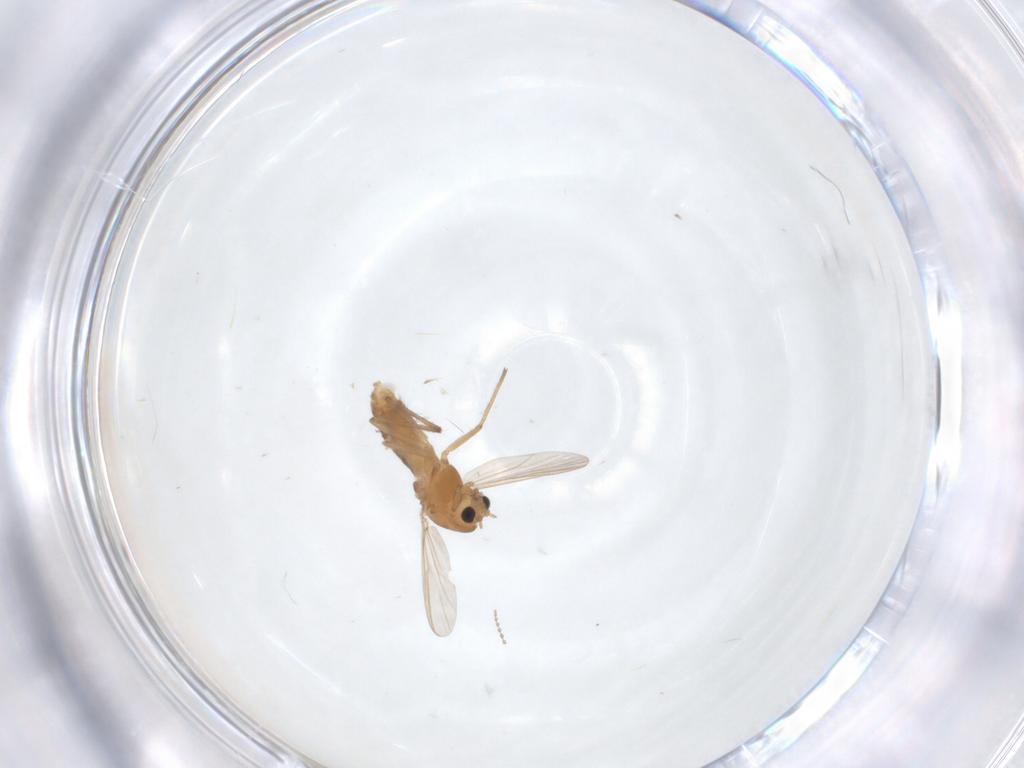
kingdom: Animalia
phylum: Arthropoda
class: Insecta
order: Diptera
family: Chironomidae
